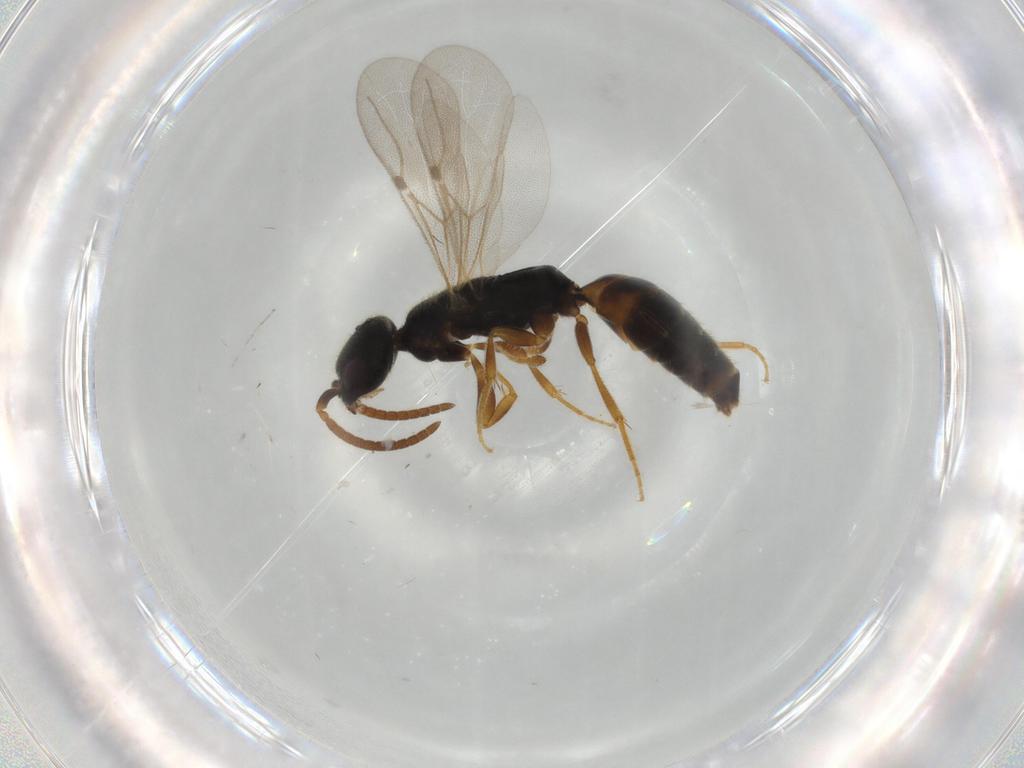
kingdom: Animalia
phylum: Arthropoda
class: Insecta
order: Hymenoptera
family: Bethylidae
